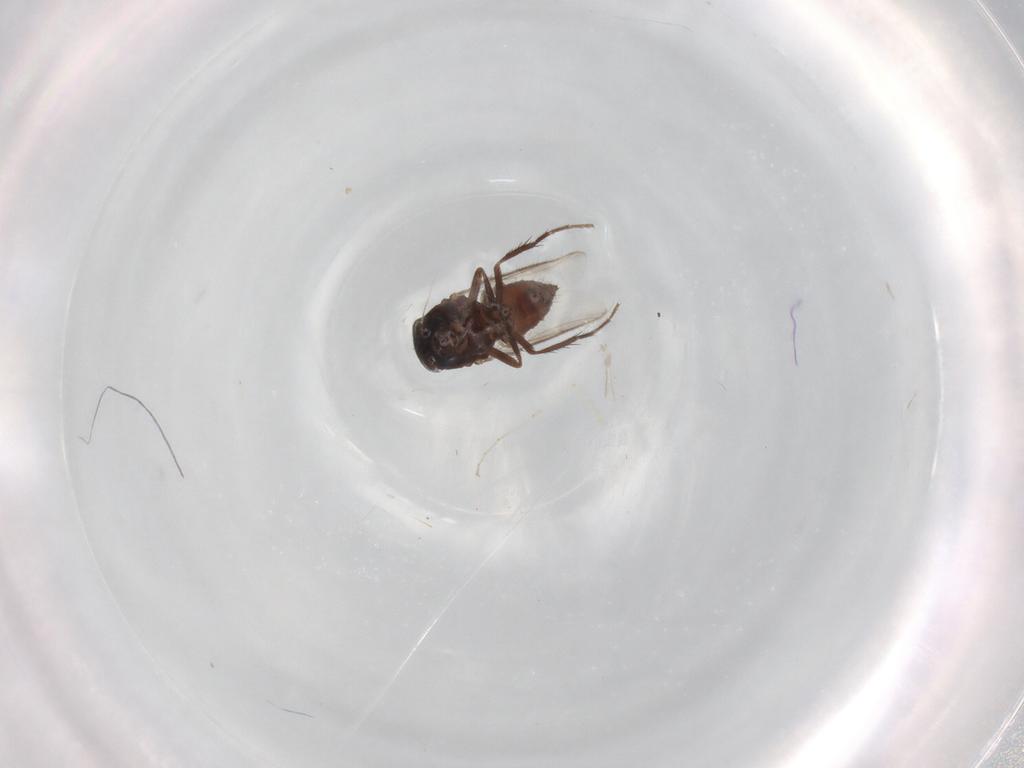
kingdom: Animalia
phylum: Arthropoda
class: Insecta
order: Diptera
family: Sphaeroceridae
